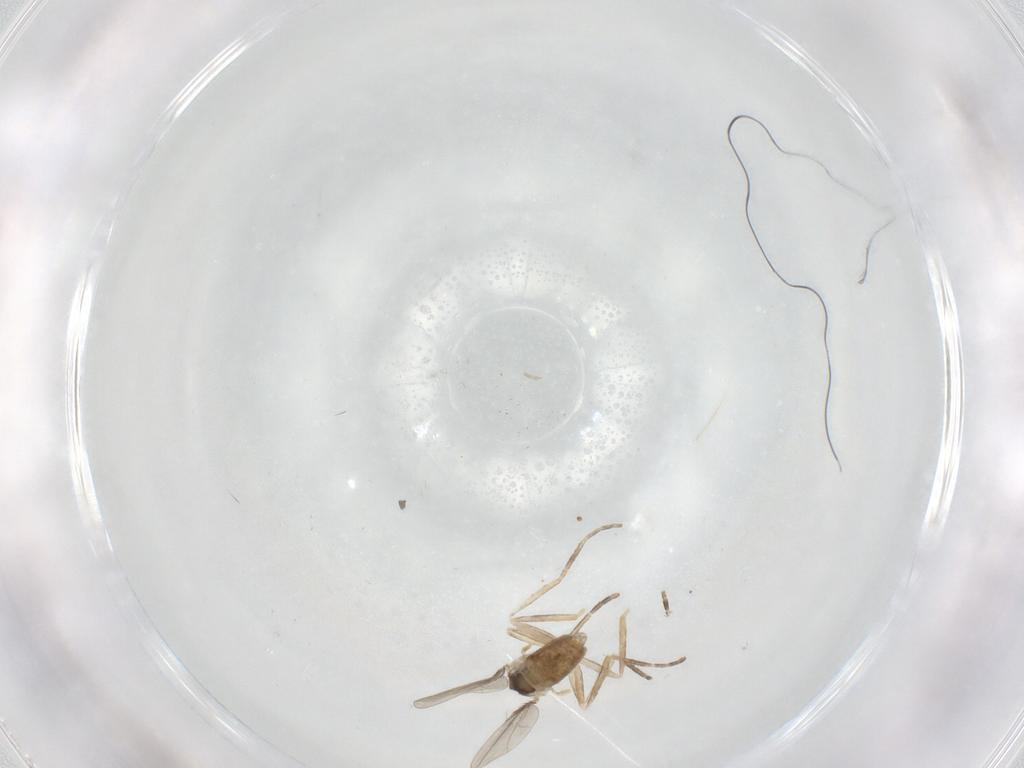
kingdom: Animalia
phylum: Arthropoda
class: Insecta
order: Diptera
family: Cecidomyiidae
